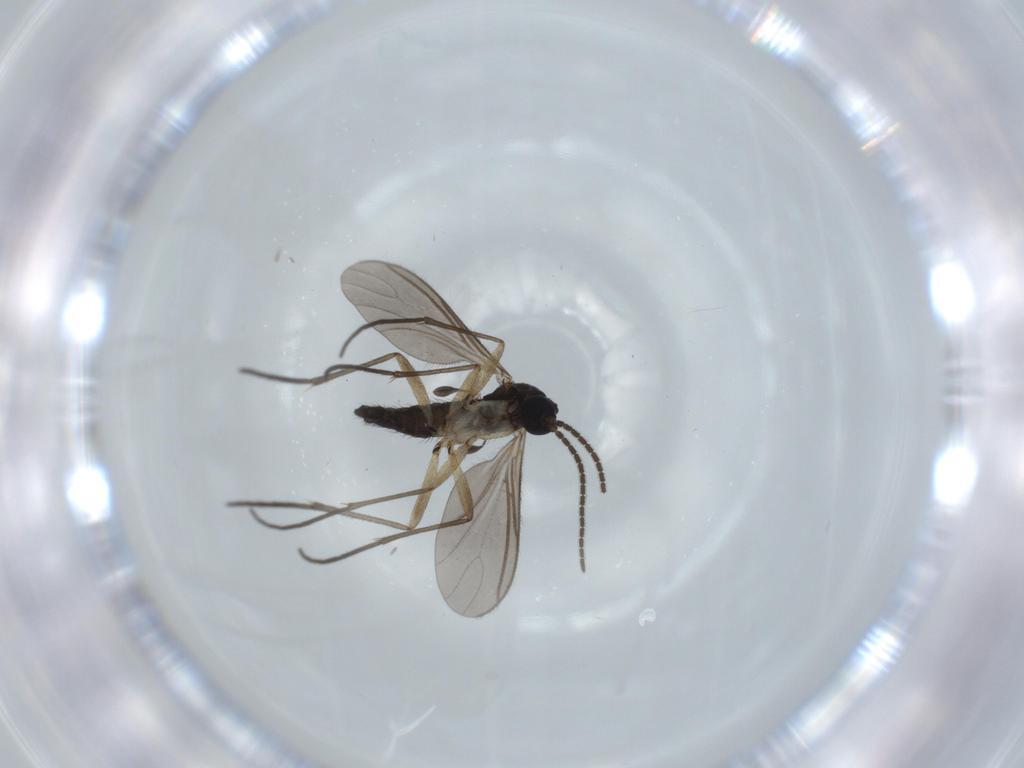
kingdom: Animalia
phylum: Arthropoda
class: Insecta
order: Diptera
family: Sciaridae
